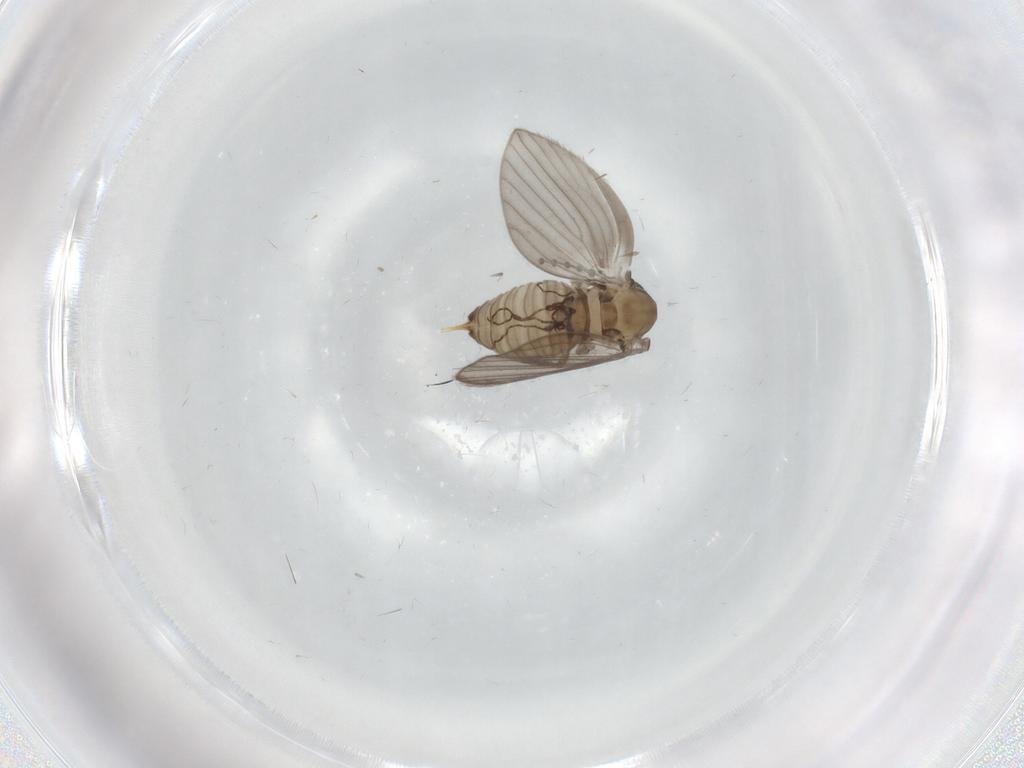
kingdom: Animalia
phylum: Arthropoda
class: Insecta
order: Diptera
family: Psychodidae
